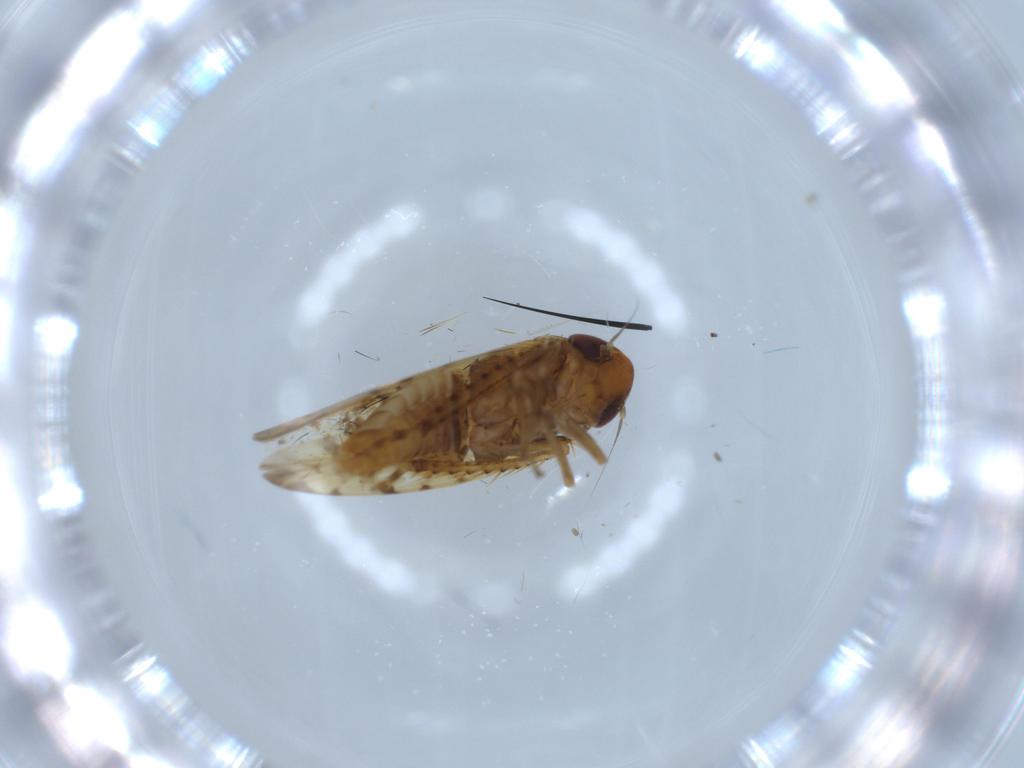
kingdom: Animalia
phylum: Arthropoda
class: Insecta
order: Hemiptera
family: Cicadellidae
